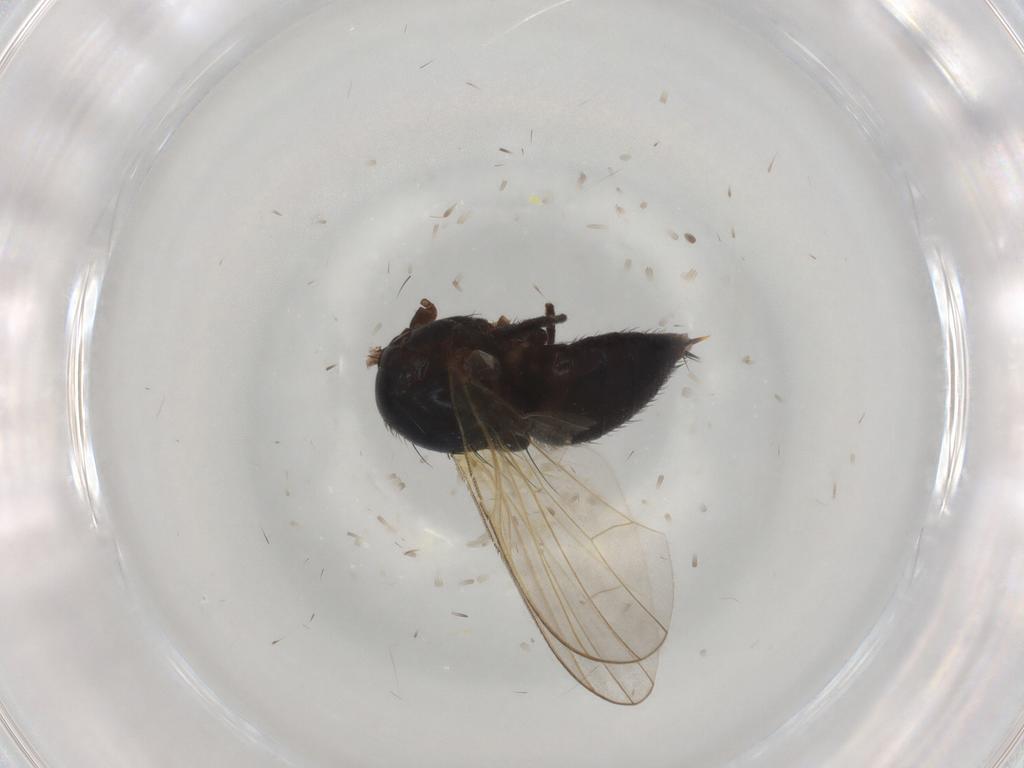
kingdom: Animalia
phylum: Arthropoda
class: Insecta
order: Diptera
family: Lonchaeidae
